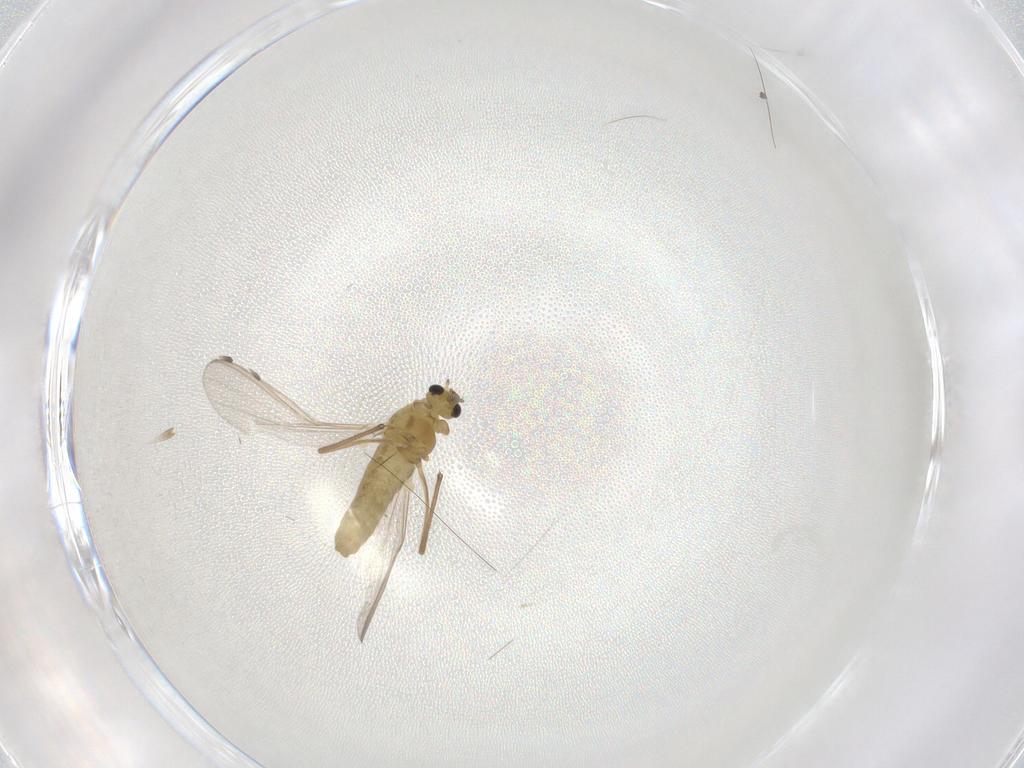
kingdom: Animalia
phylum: Arthropoda
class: Insecta
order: Diptera
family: Chironomidae
